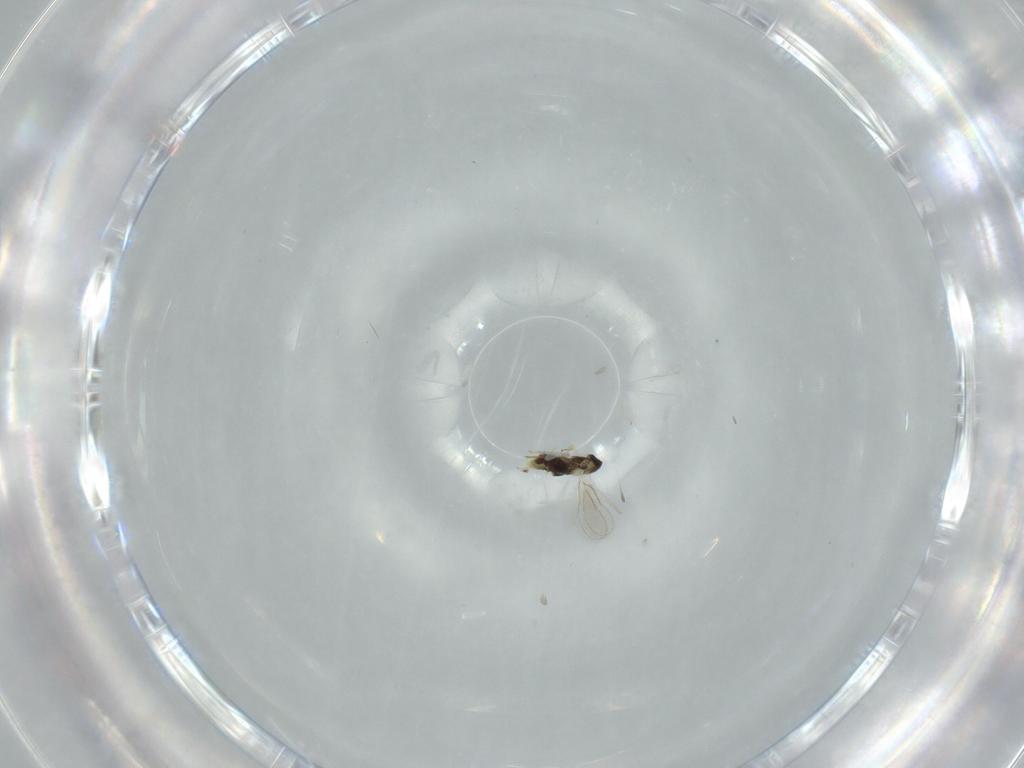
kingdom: Animalia
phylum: Arthropoda
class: Insecta
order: Hymenoptera
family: Aphelinidae
